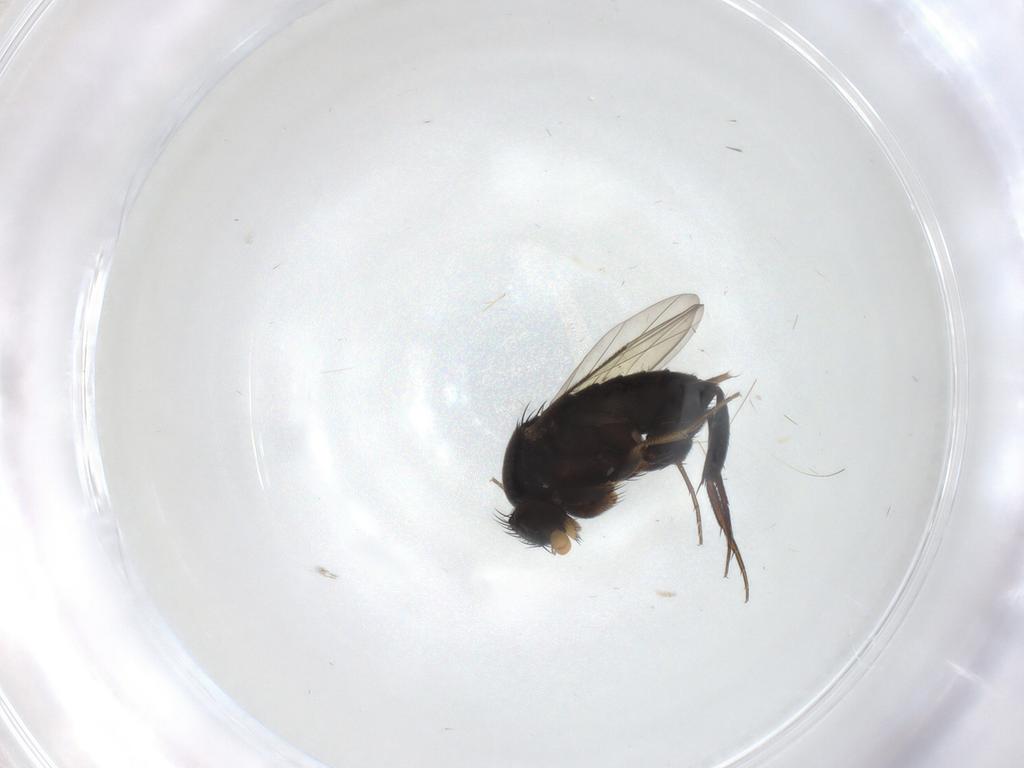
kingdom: Animalia
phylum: Arthropoda
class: Insecta
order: Diptera
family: Phoridae
